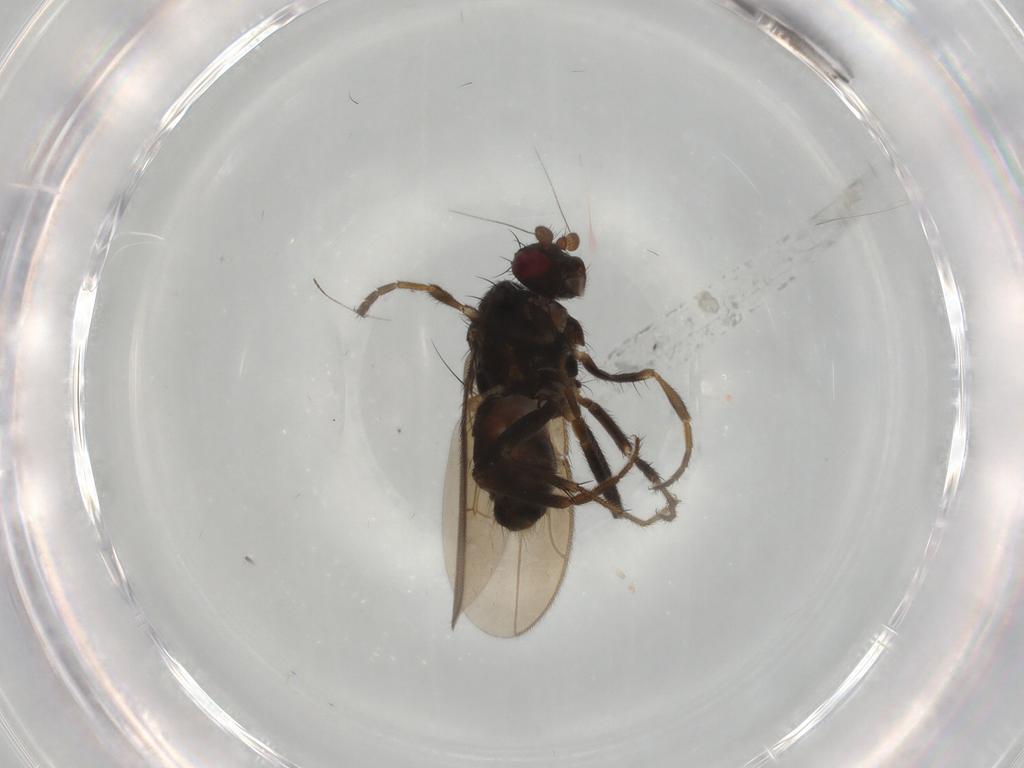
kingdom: Animalia
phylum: Arthropoda
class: Insecta
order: Diptera
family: Sphaeroceridae
